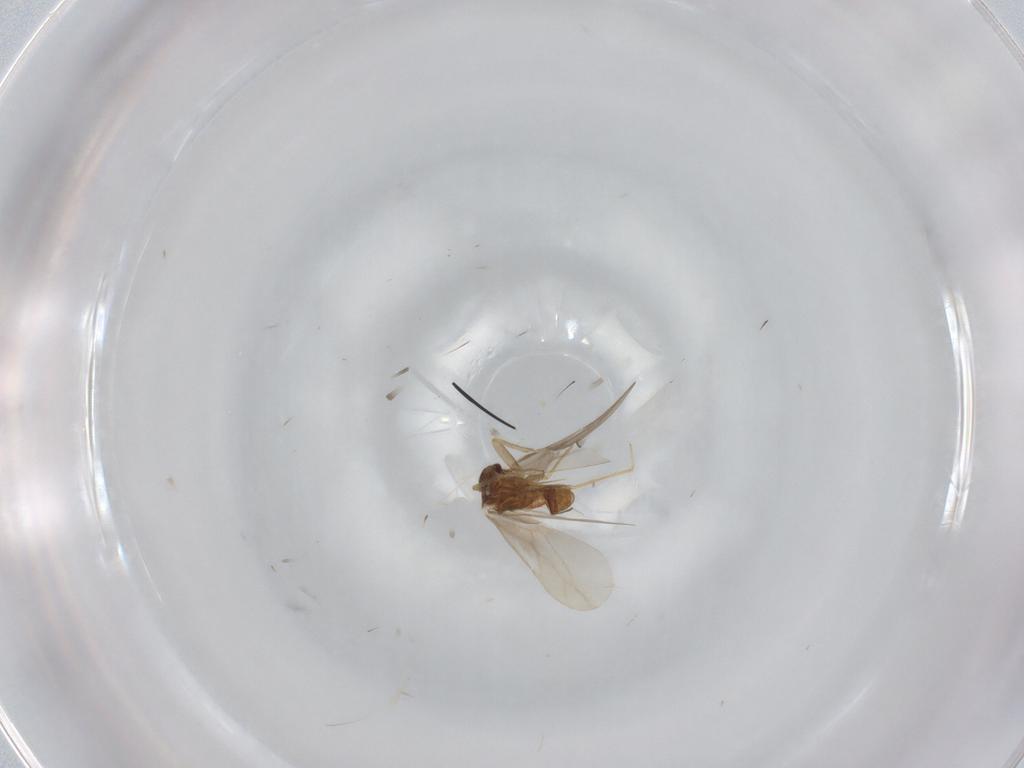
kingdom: Animalia
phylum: Arthropoda
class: Insecta
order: Hemiptera
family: Ceratocombidae
